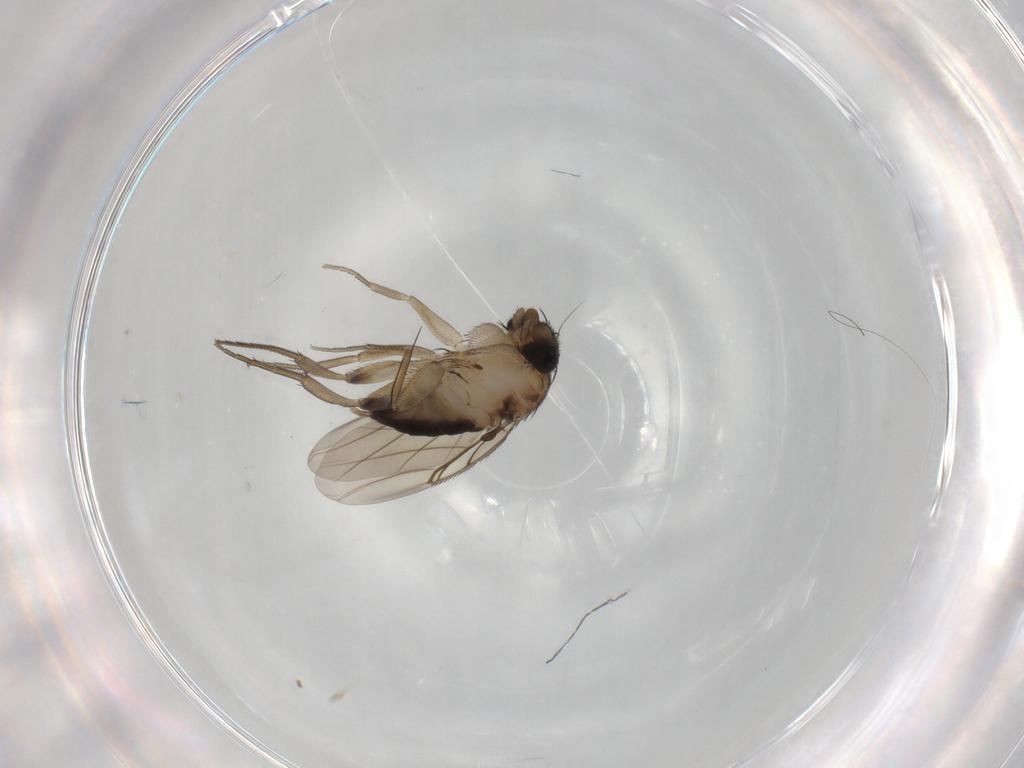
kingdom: Animalia
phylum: Arthropoda
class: Insecta
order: Diptera
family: Phoridae
